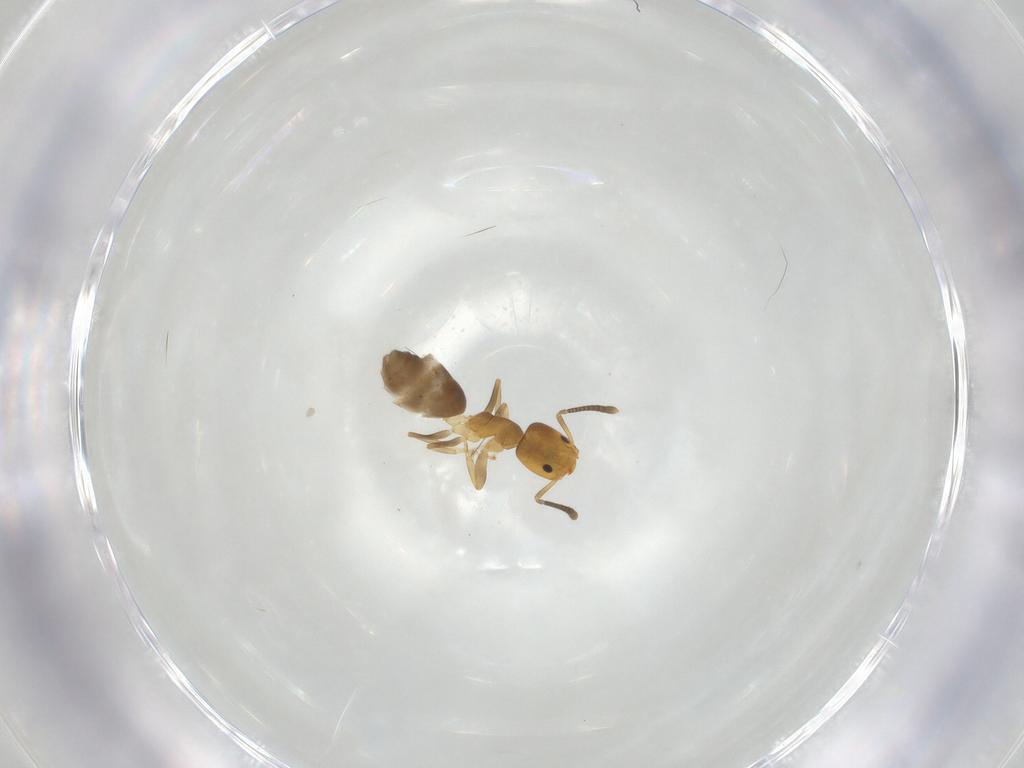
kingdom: Animalia
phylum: Arthropoda
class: Insecta
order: Hymenoptera
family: Formicidae
